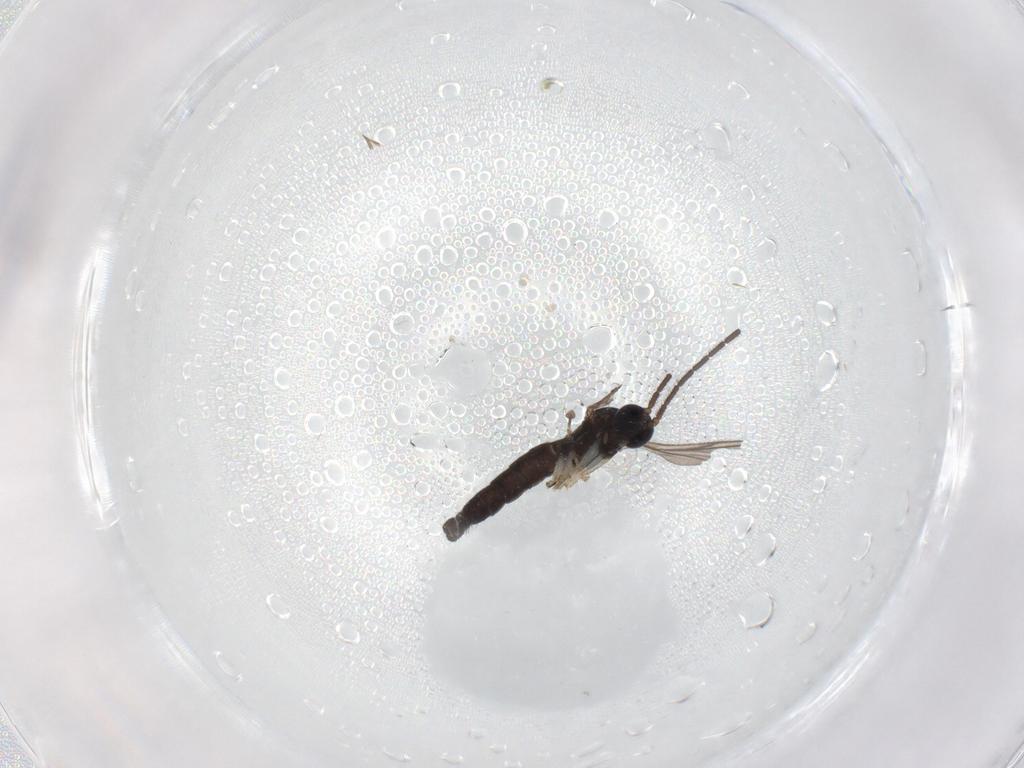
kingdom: Animalia
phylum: Arthropoda
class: Insecta
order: Diptera
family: Sciaridae
